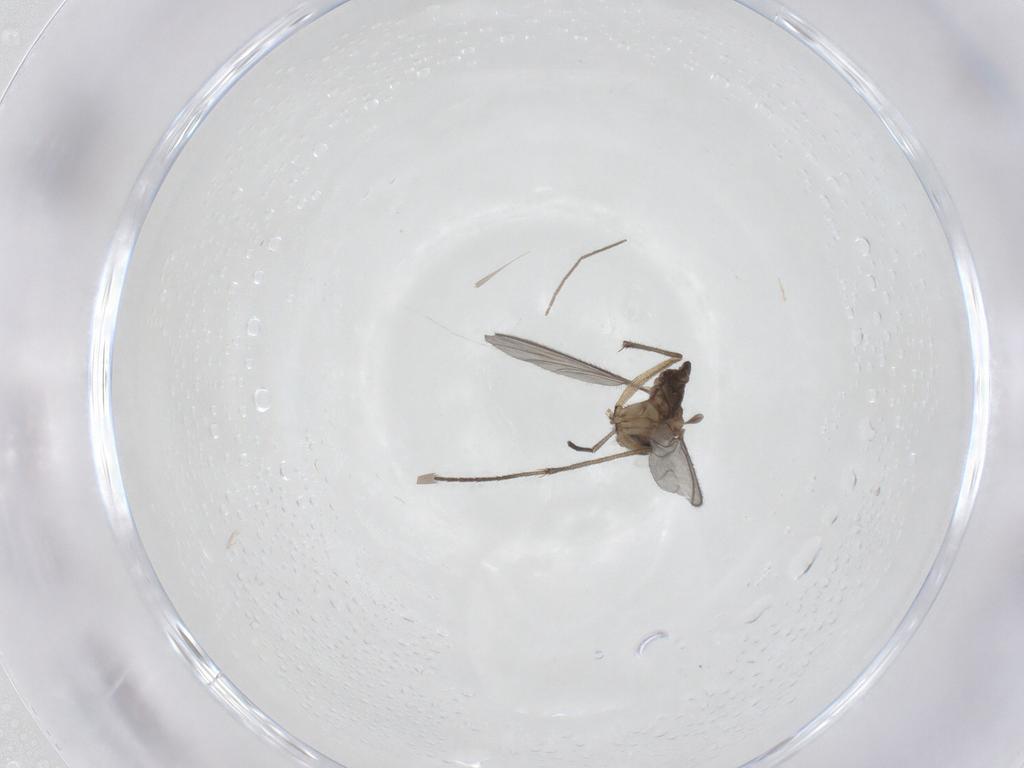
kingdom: Animalia
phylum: Arthropoda
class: Insecta
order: Diptera
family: Sciaridae
